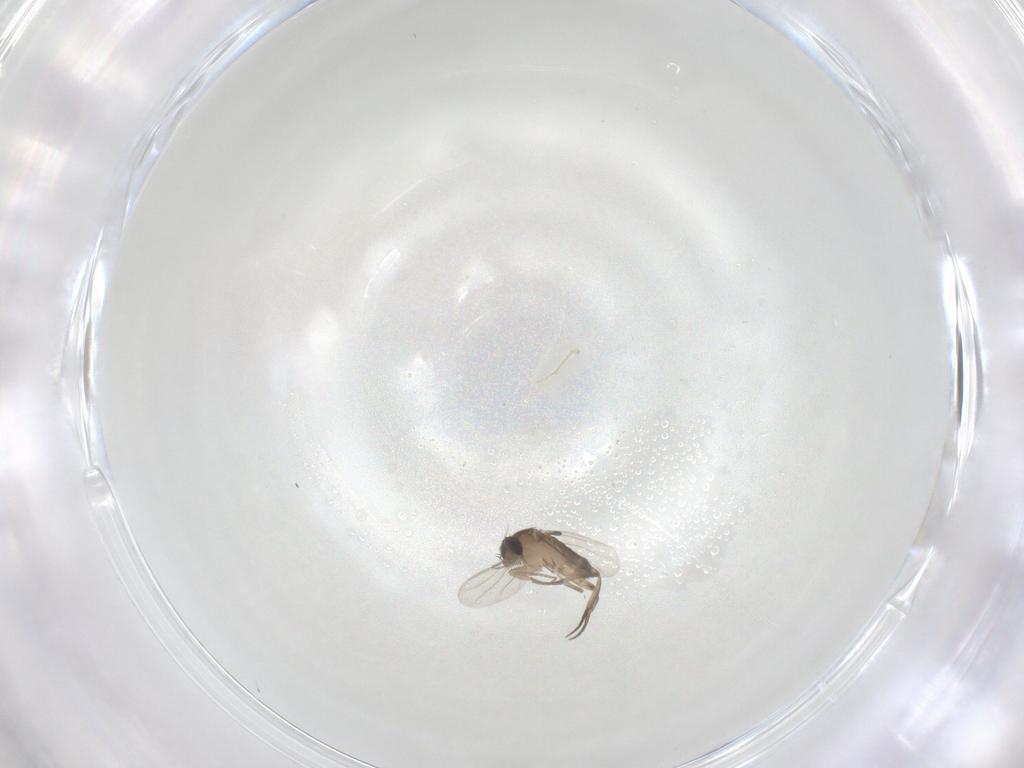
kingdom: Animalia
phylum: Arthropoda
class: Insecta
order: Diptera
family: Phoridae
